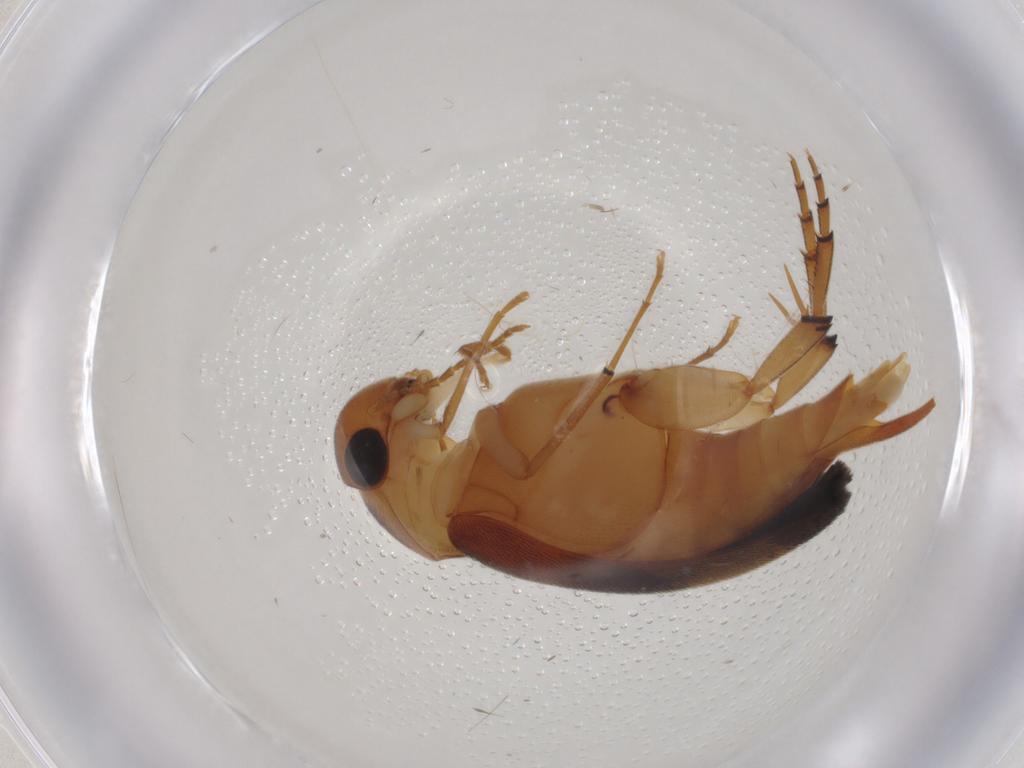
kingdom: Animalia
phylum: Arthropoda
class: Insecta
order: Coleoptera
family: Mordellidae
